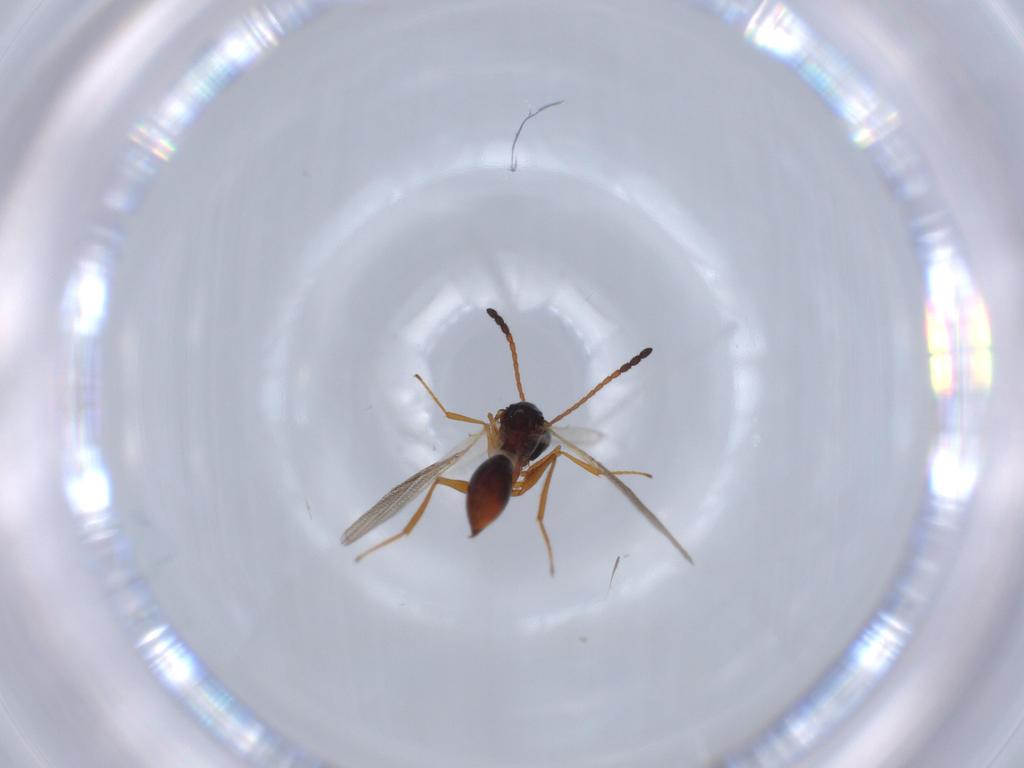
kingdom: Animalia
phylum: Arthropoda
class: Insecta
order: Hymenoptera
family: Figitidae
